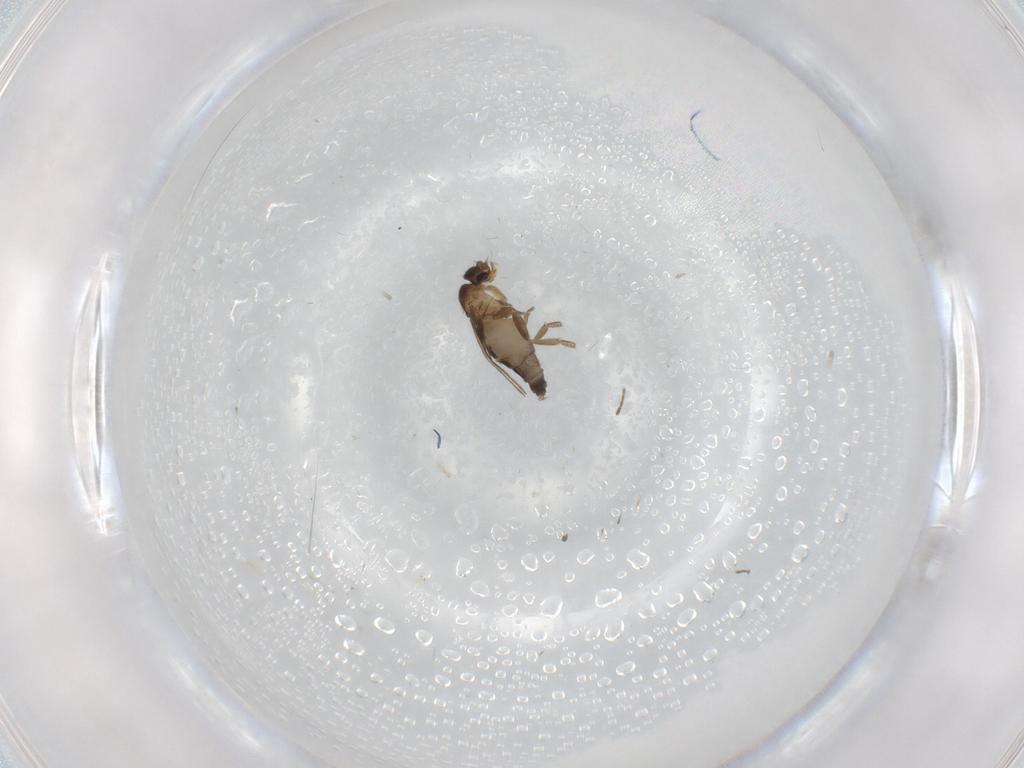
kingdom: Animalia
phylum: Arthropoda
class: Insecta
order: Diptera
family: Phoridae
